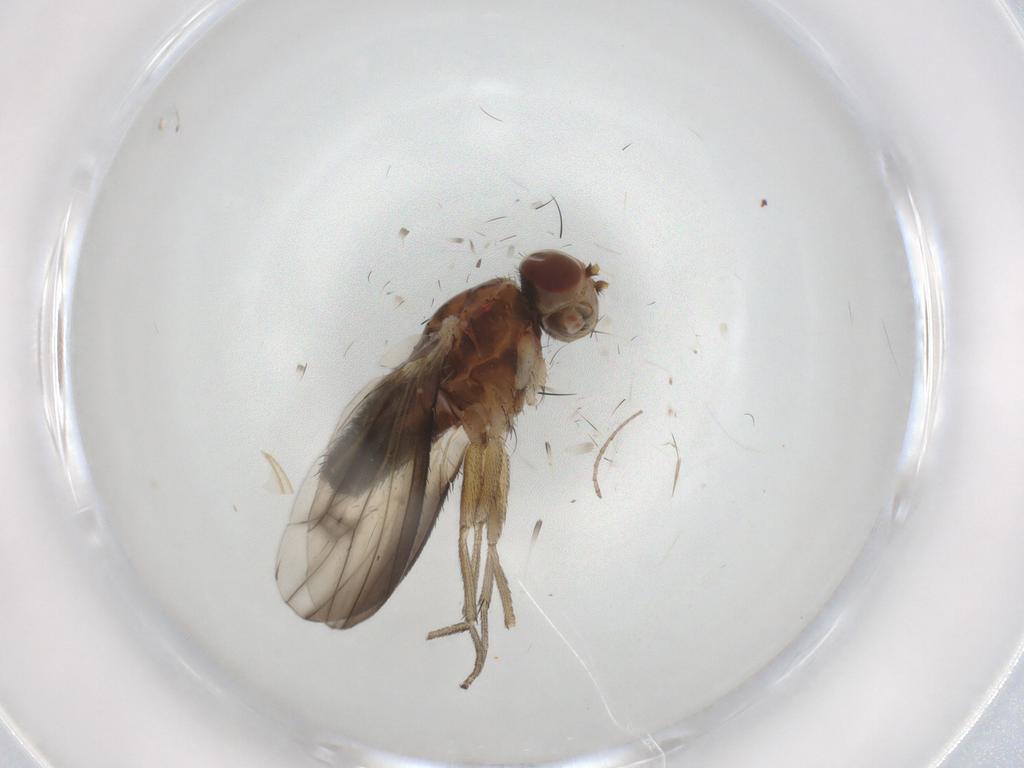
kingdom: Animalia
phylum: Arthropoda
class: Insecta
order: Diptera
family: Heleomyzidae
